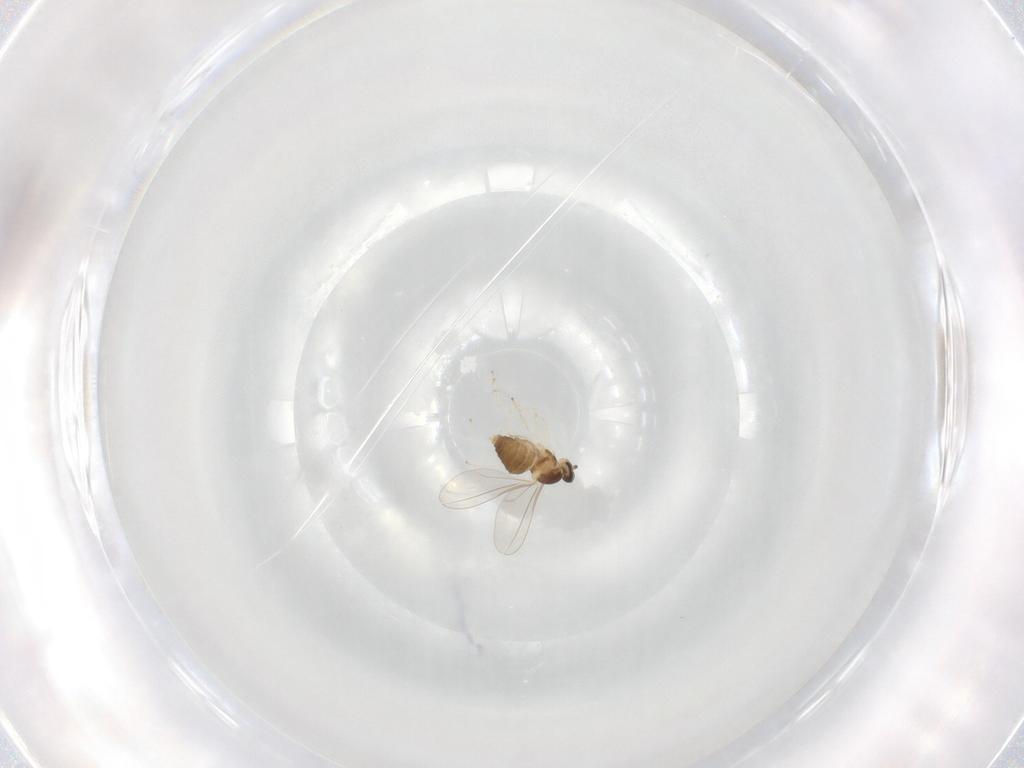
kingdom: Animalia
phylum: Arthropoda
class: Insecta
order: Diptera
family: Cecidomyiidae
